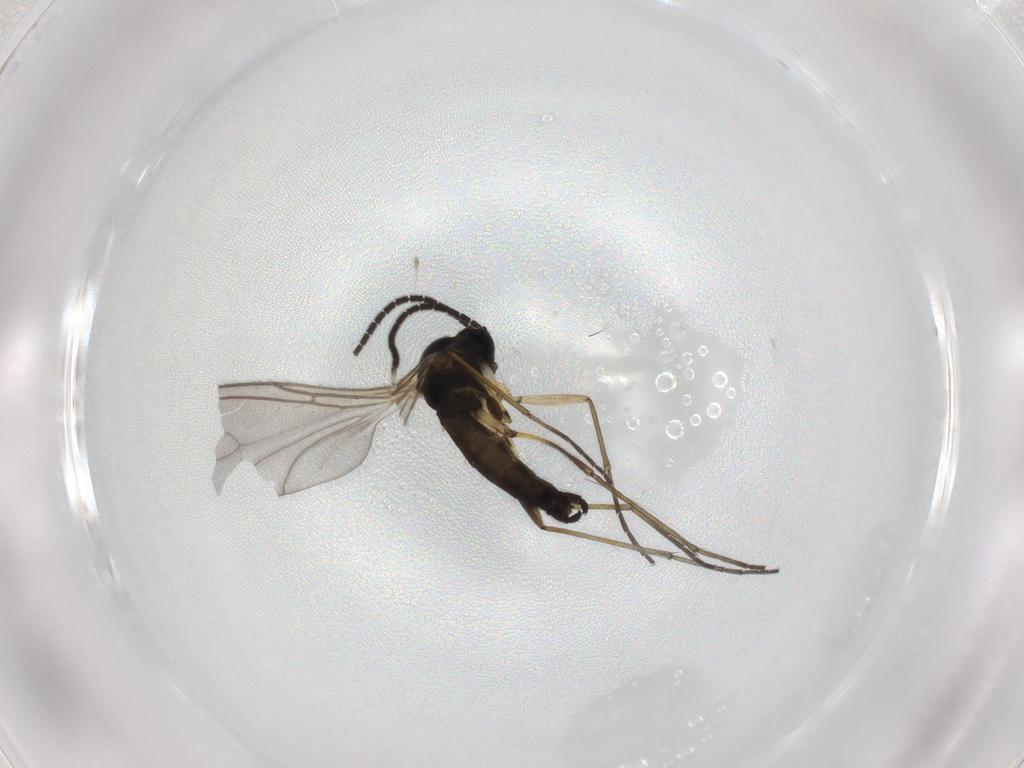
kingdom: Animalia
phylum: Arthropoda
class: Insecta
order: Diptera
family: Sciaridae
